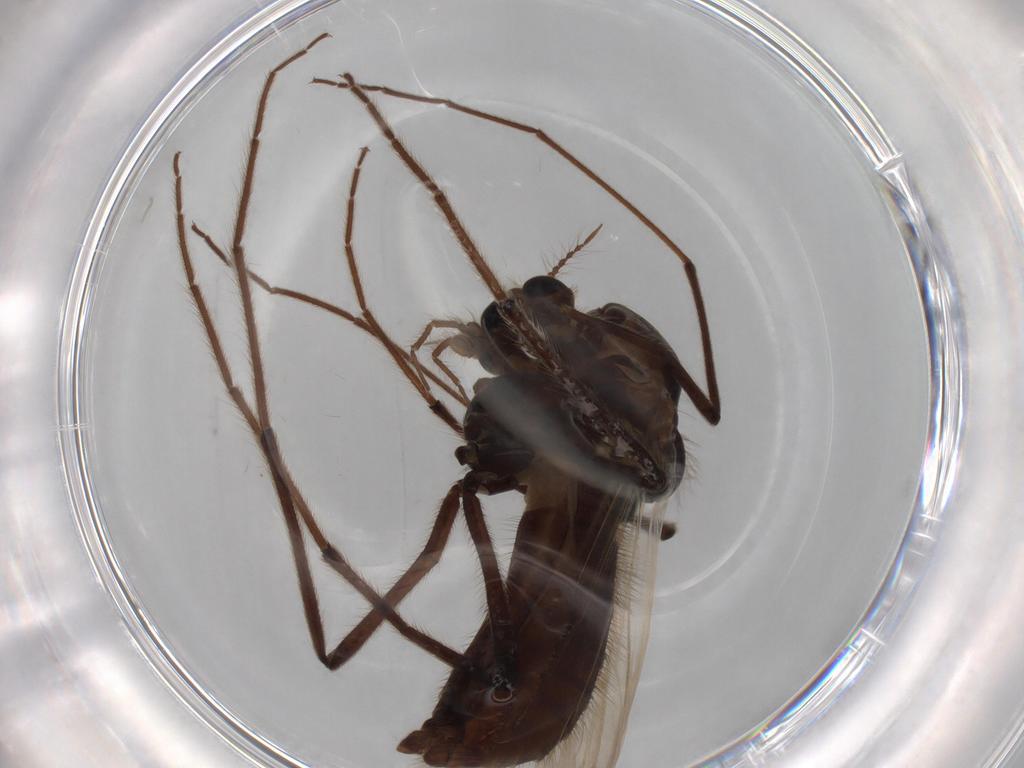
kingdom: Animalia
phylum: Arthropoda
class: Insecta
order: Diptera
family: Chironomidae
